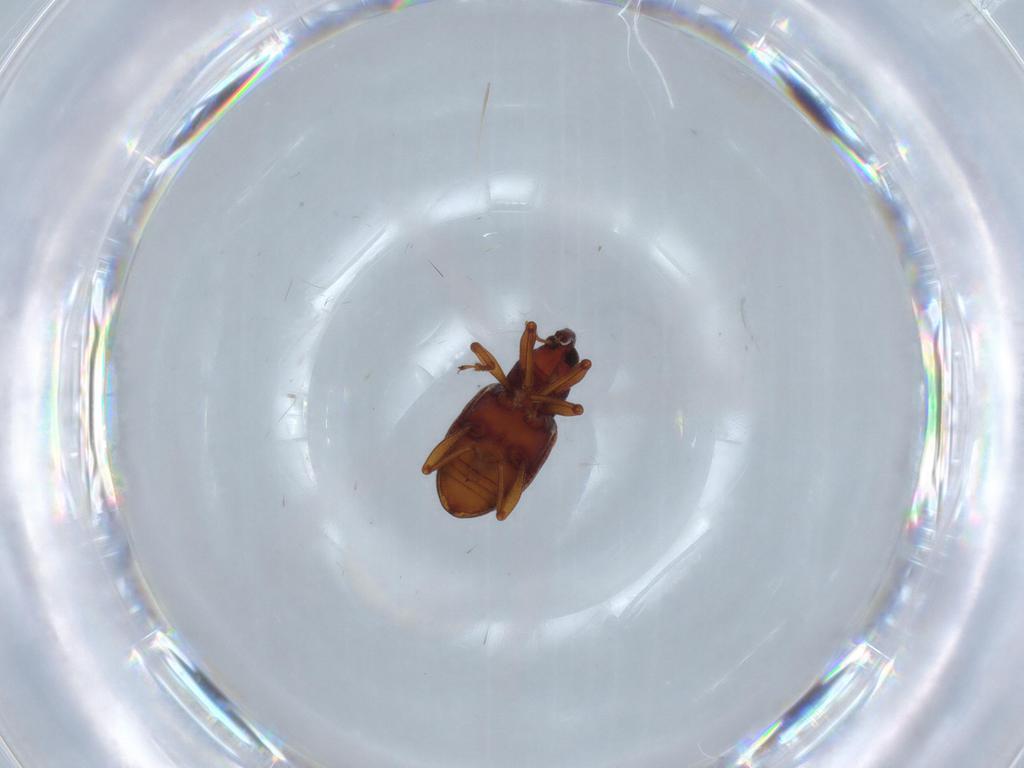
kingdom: Animalia
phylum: Arthropoda
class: Insecta
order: Coleoptera
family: Curculionidae
